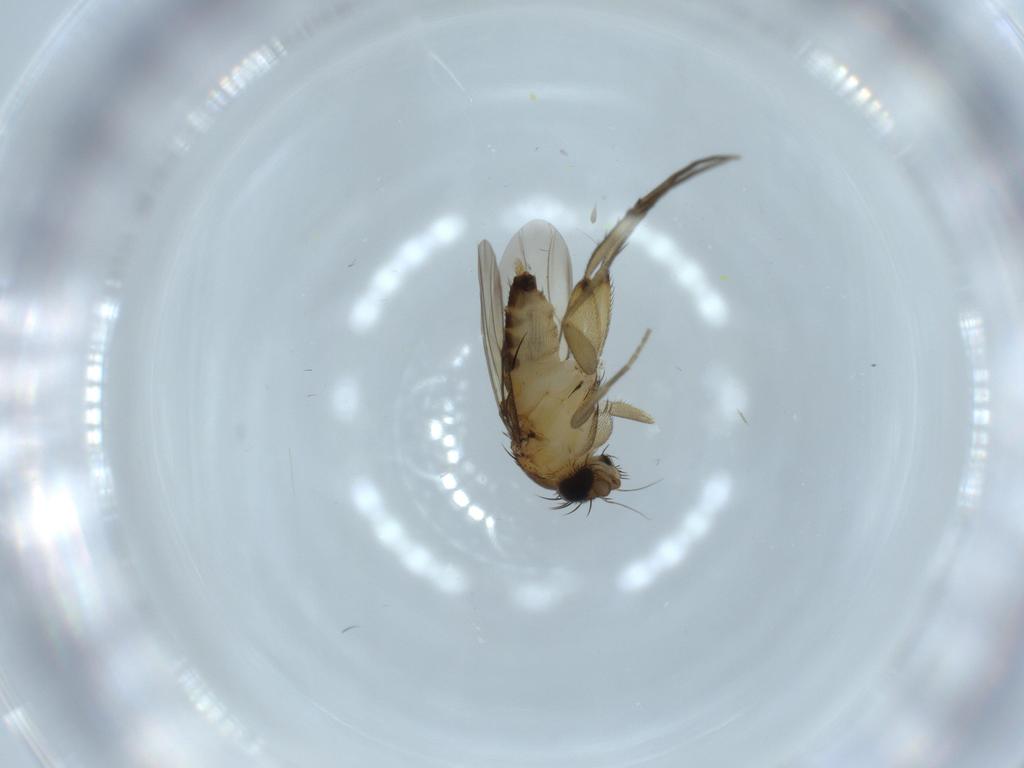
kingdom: Animalia
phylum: Arthropoda
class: Insecta
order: Diptera
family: Phoridae
